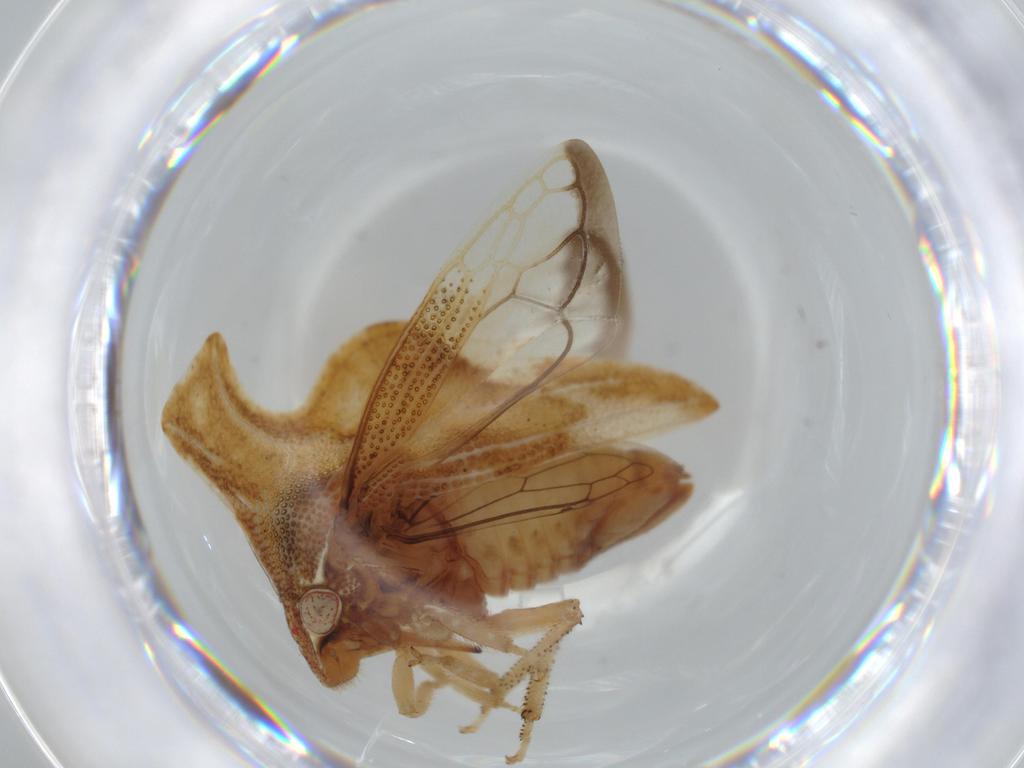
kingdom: Animalia
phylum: Arthropoda
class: Insecta
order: Hemiptera
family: Membracidae
